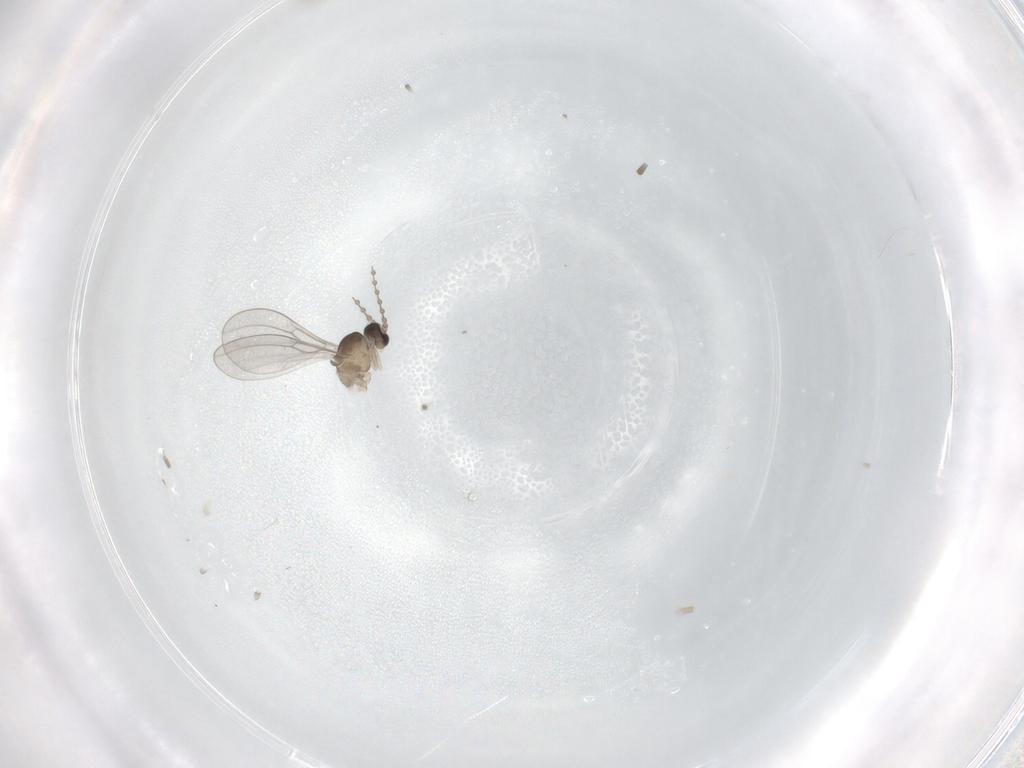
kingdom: Animalia
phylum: Arthropoda
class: Insecta
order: Diptera
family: Cecidomyiidae
